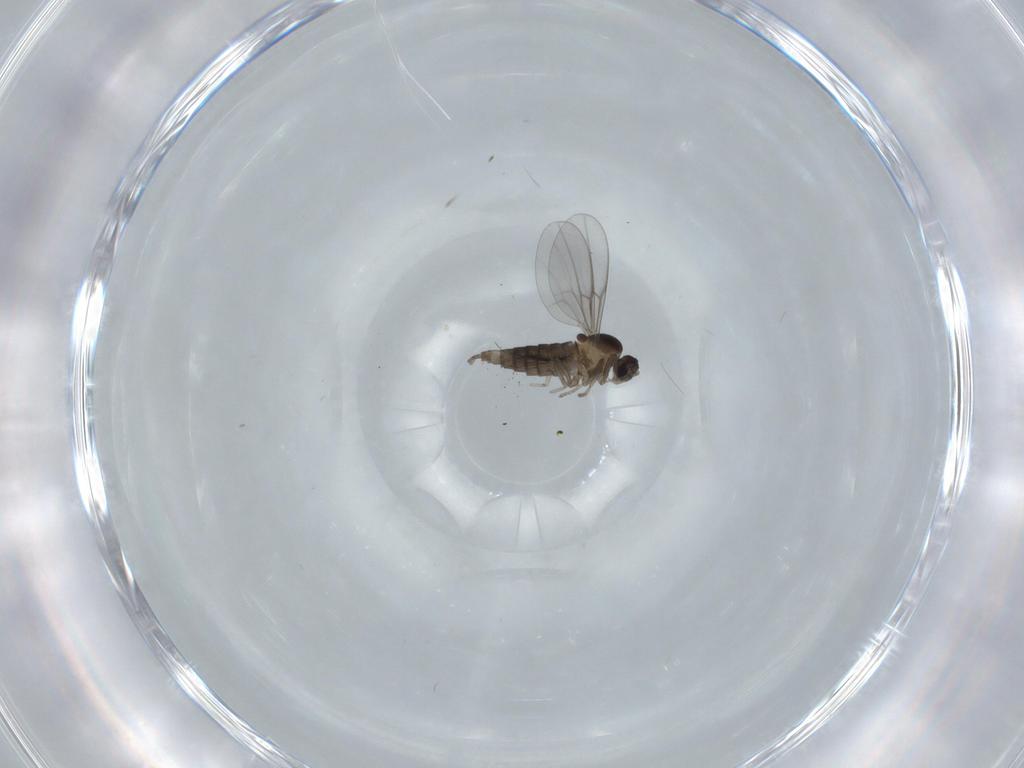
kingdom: Animalia
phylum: Arthropoda
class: Insecta
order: Diptera
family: Cecidomyiidae
